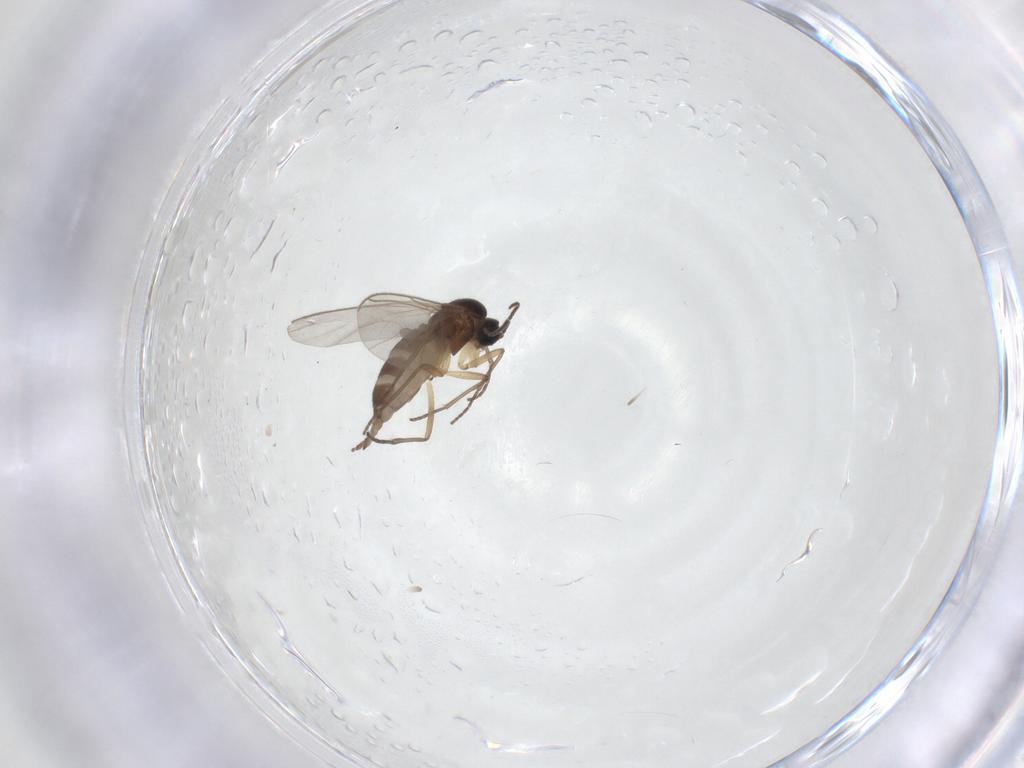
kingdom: Animalia
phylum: Arthropoda
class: Insecta
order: Diptera
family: Sciaridae
